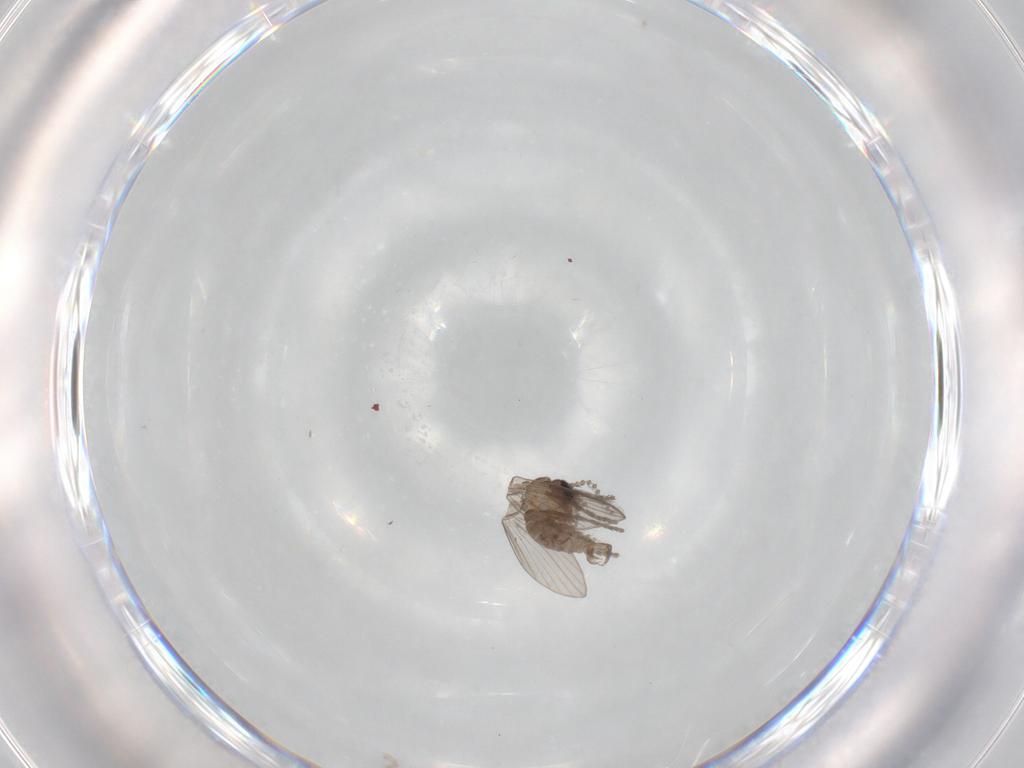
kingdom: Animalia
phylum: Arthropoda
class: Insecta
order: Diptera
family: Psychodidae
